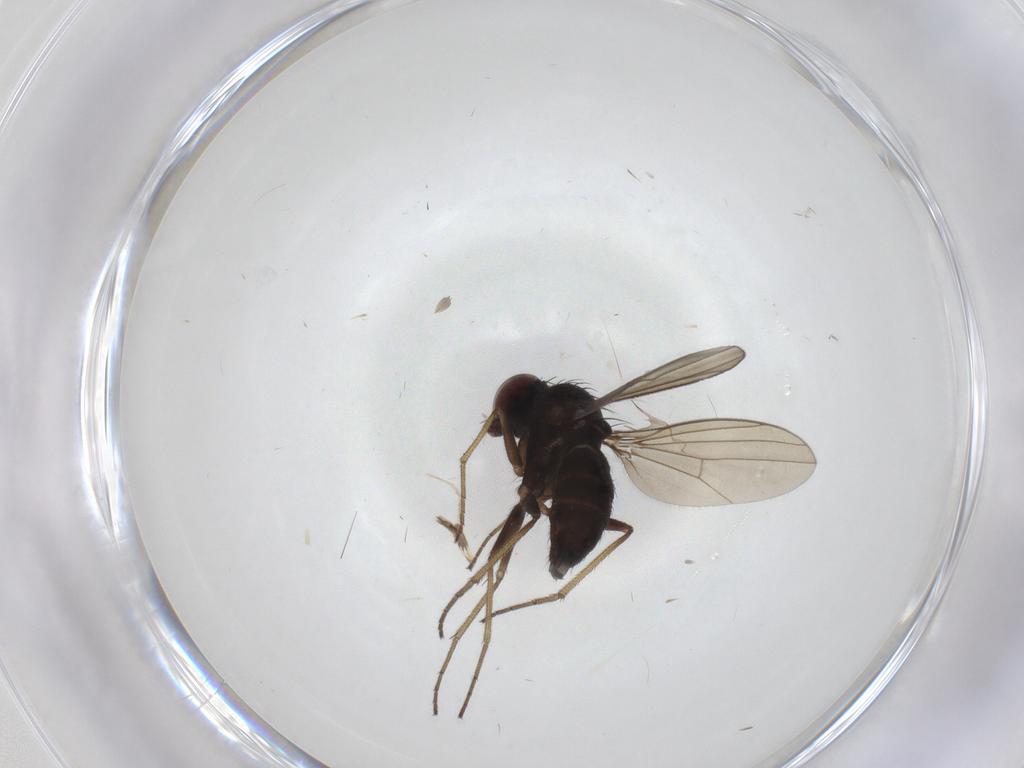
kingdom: Animalia
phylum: Arthropoda
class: Insecta
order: Diptera
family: Dolichopodidae
